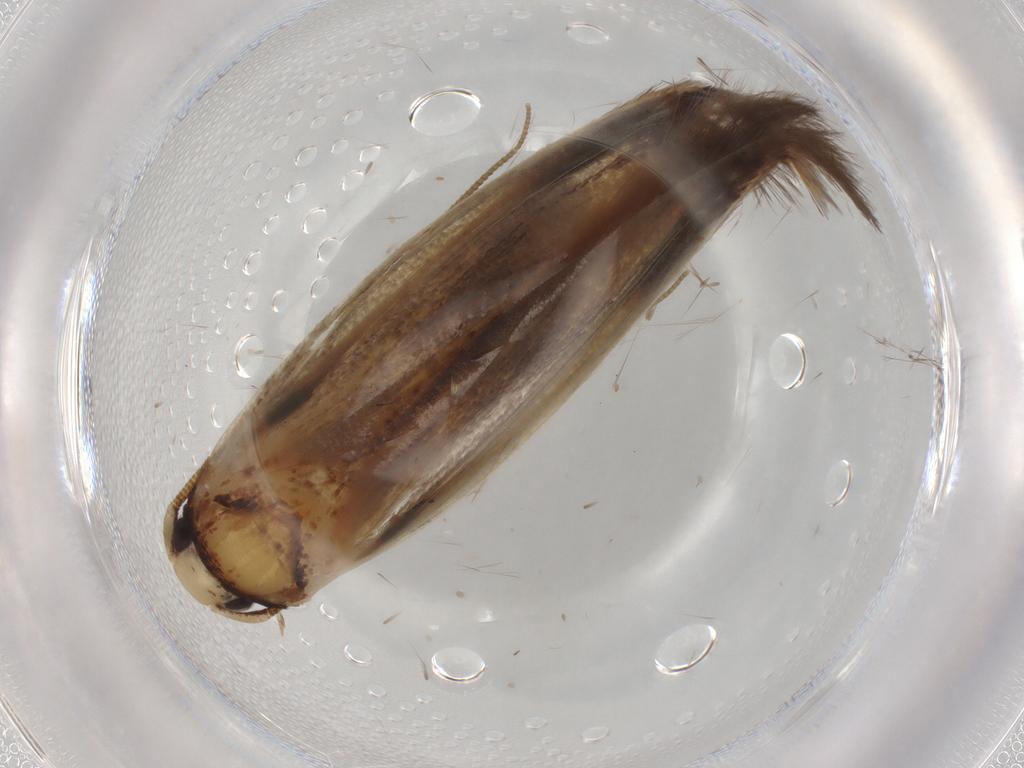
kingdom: Animalia
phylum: Arthropoda
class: Insecta
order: Lepidoptera
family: Tineidae
